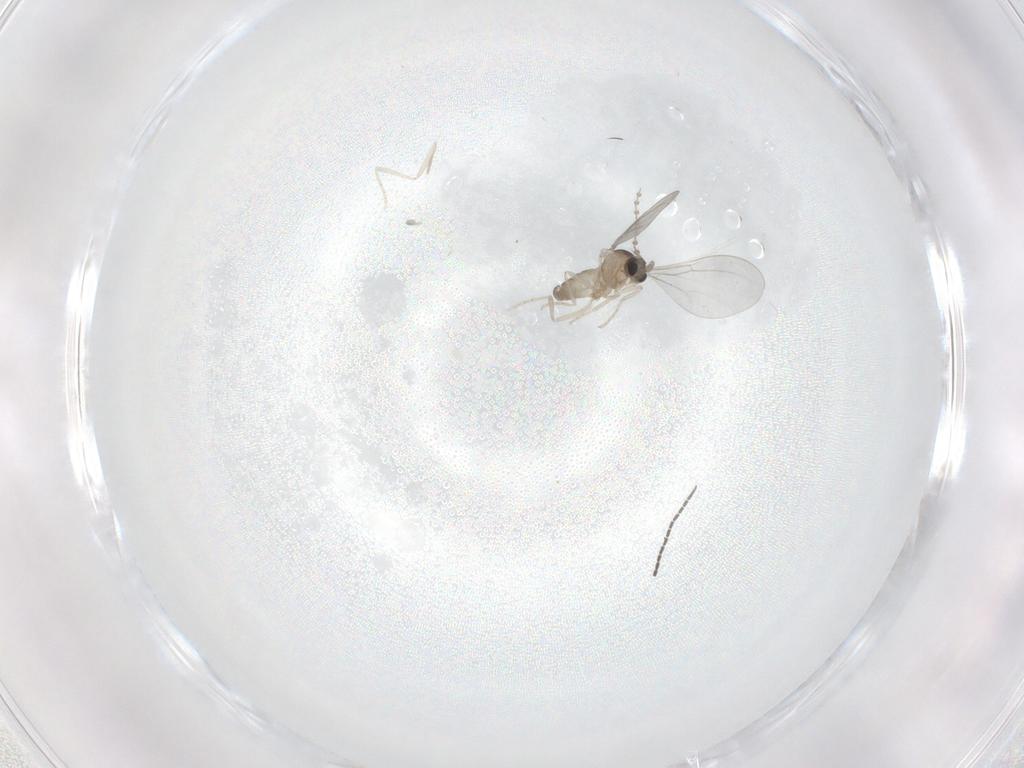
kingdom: Animalia
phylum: Arthropoda
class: Insecta
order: Diptera
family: Cecidomyiidae
